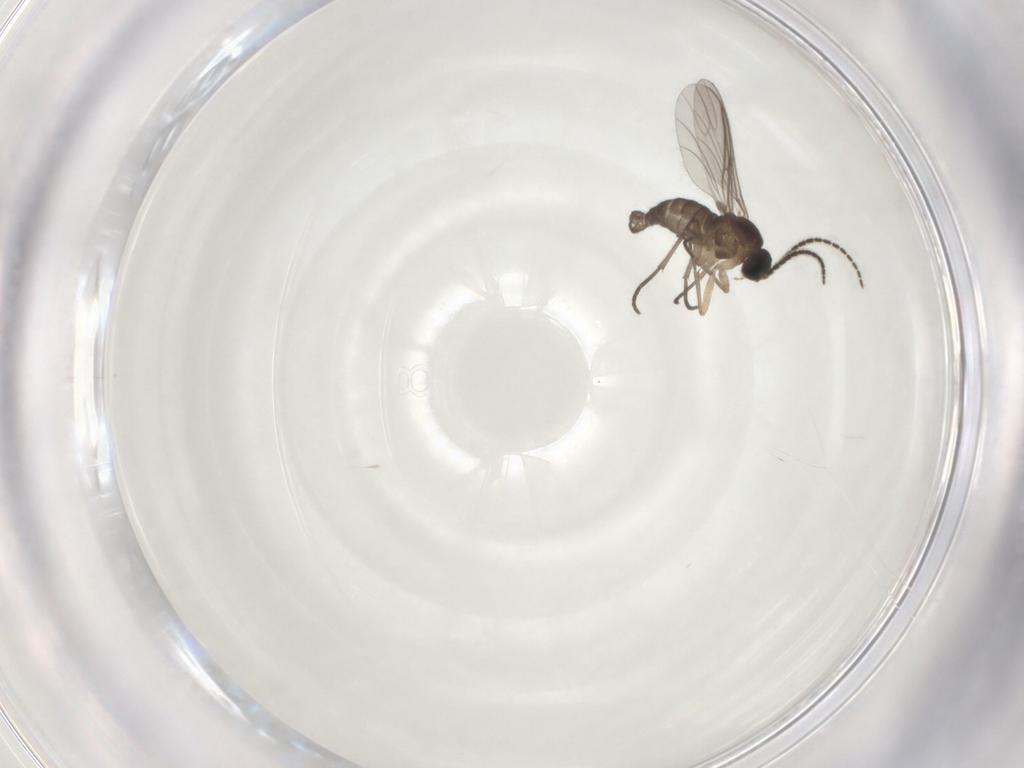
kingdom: Animalia
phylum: Arthropoda
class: Insecta
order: Diptera
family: Sciaridae
